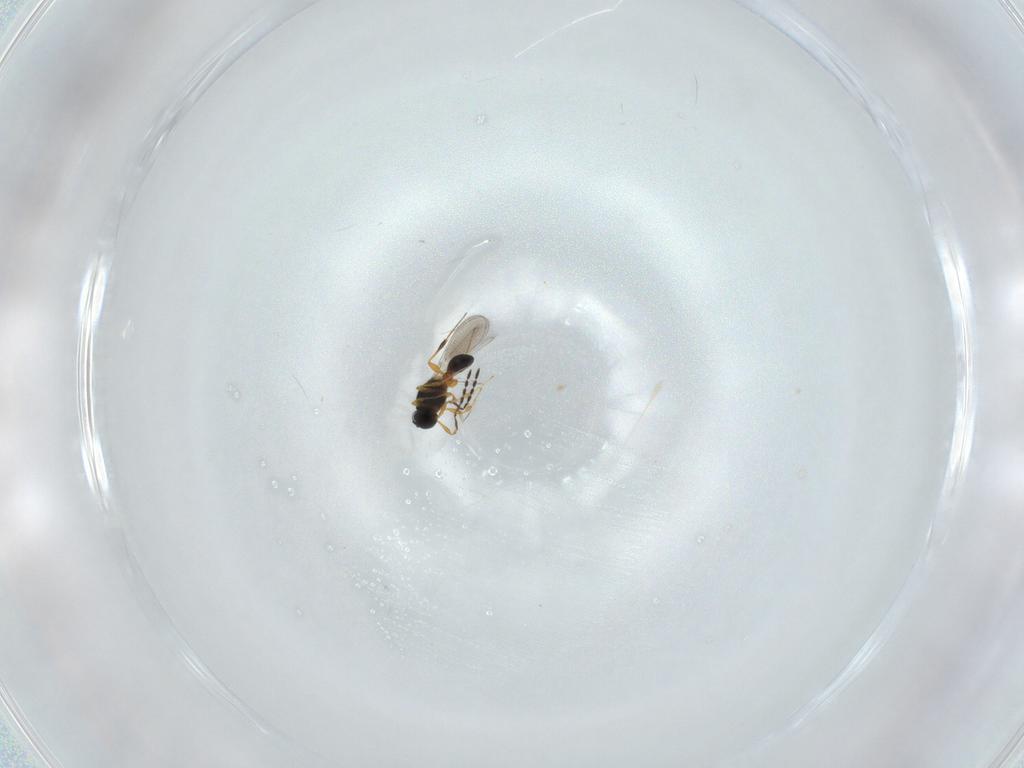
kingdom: Animalia
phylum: Arthropoda
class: Insecta
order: Hymenoptera
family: Platygastridae
